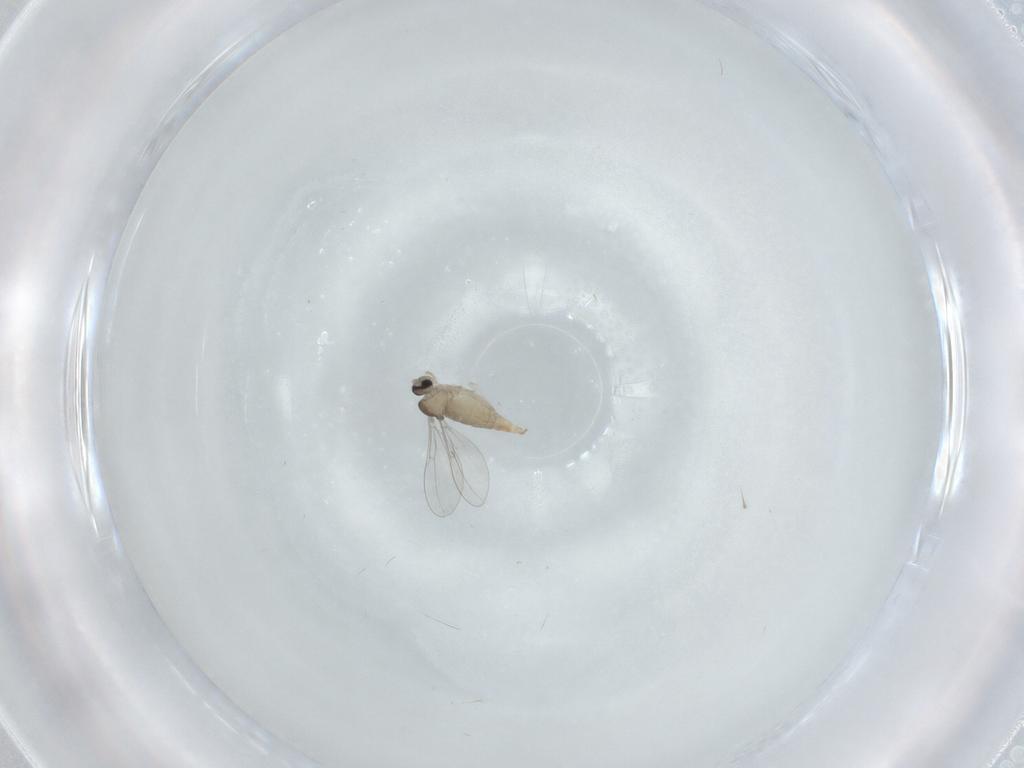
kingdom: Animalia
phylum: Arthropoda
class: Insecta
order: Diptera
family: Cecidomyiidae
